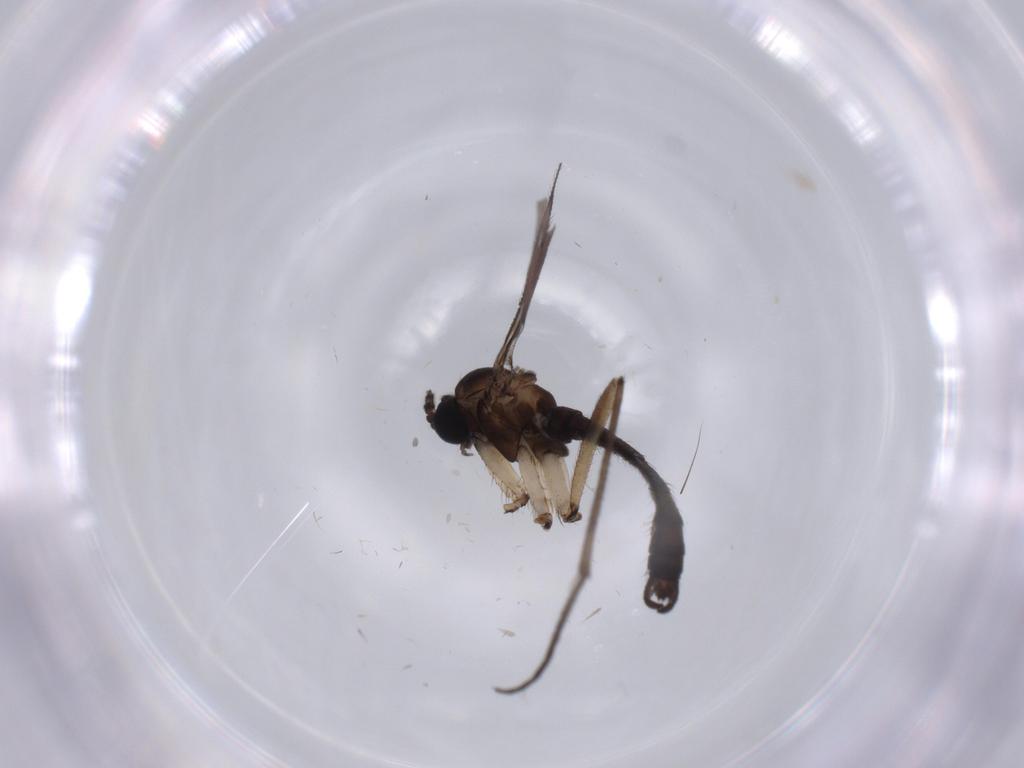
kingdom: Animalia
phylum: Arthropoda
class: Insecta
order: Diptera
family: Sciaridae
